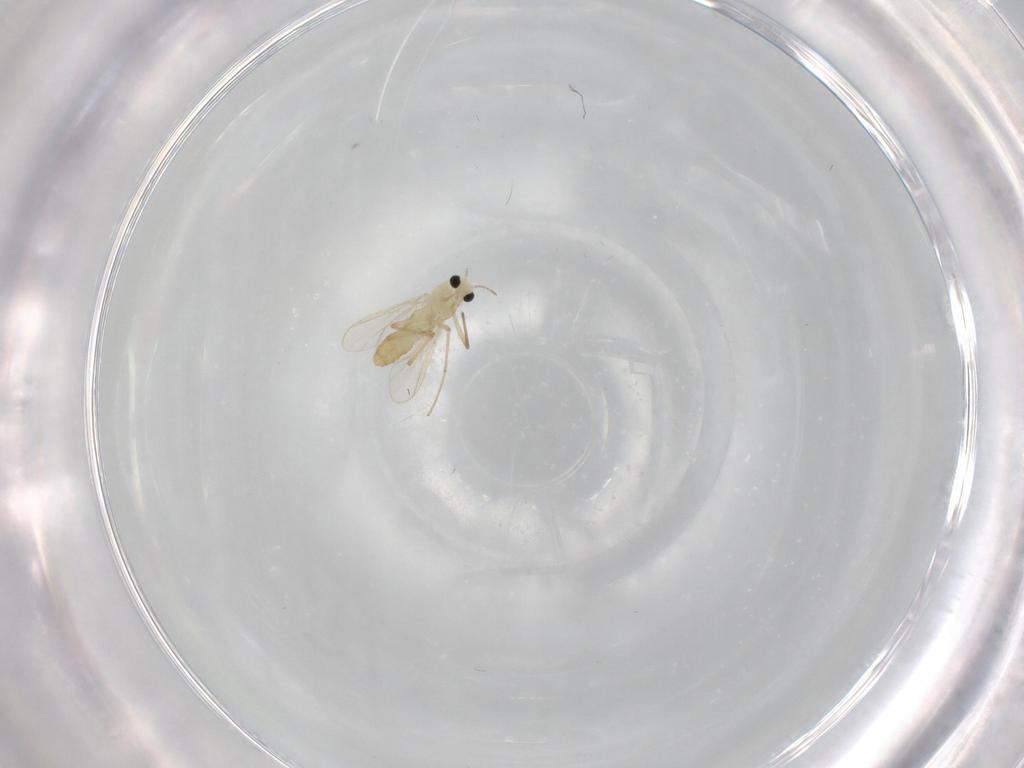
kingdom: Animalia
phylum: Arthropoda
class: Insecta
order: Diptera
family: Chironomidae
